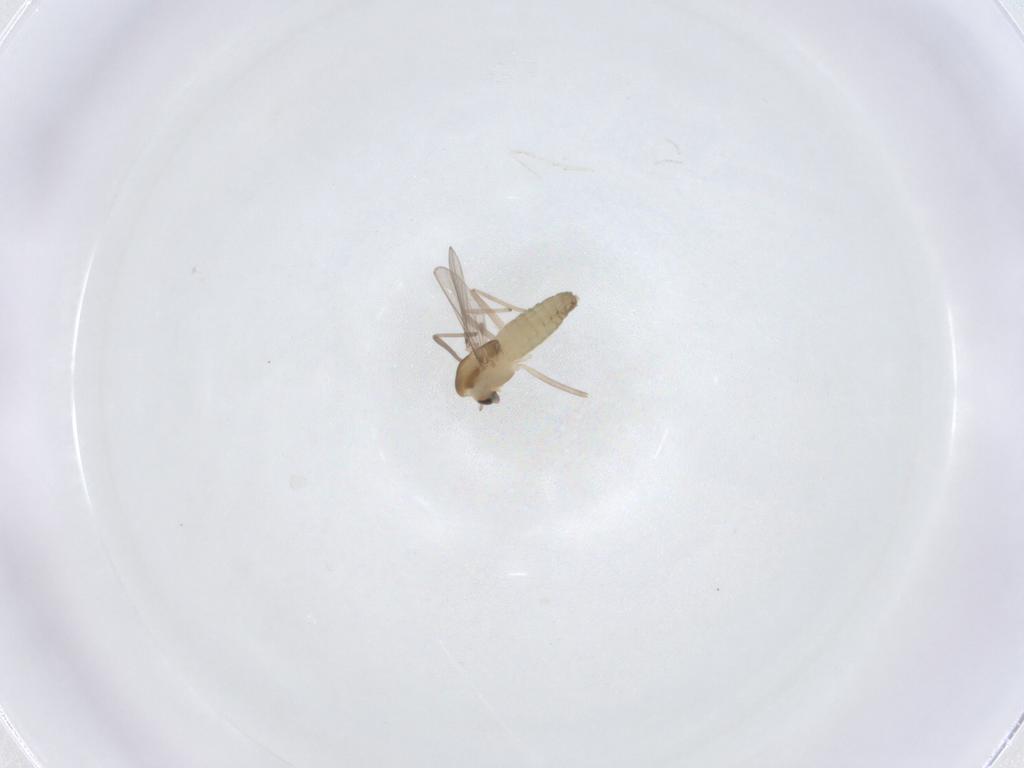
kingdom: Animalia
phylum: Arthropoda
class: Insecta
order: Diptera
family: Chironomidae
